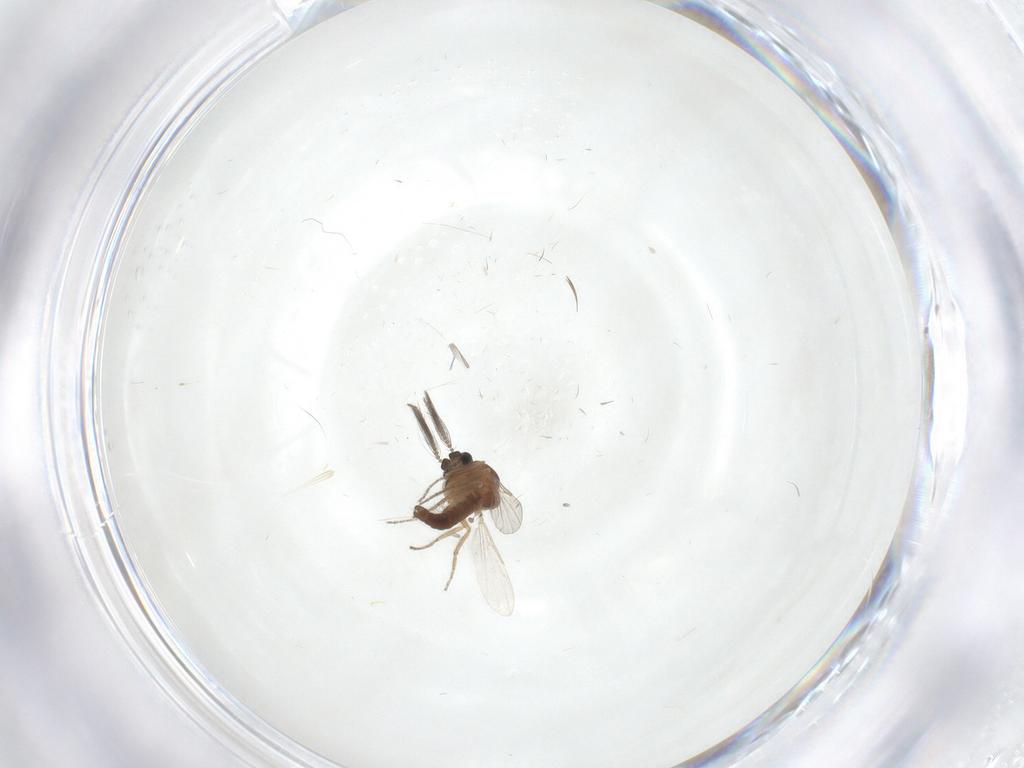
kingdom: Animalia
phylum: Arthropoda
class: Insecta
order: Diptera
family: Ceratopogonidae
